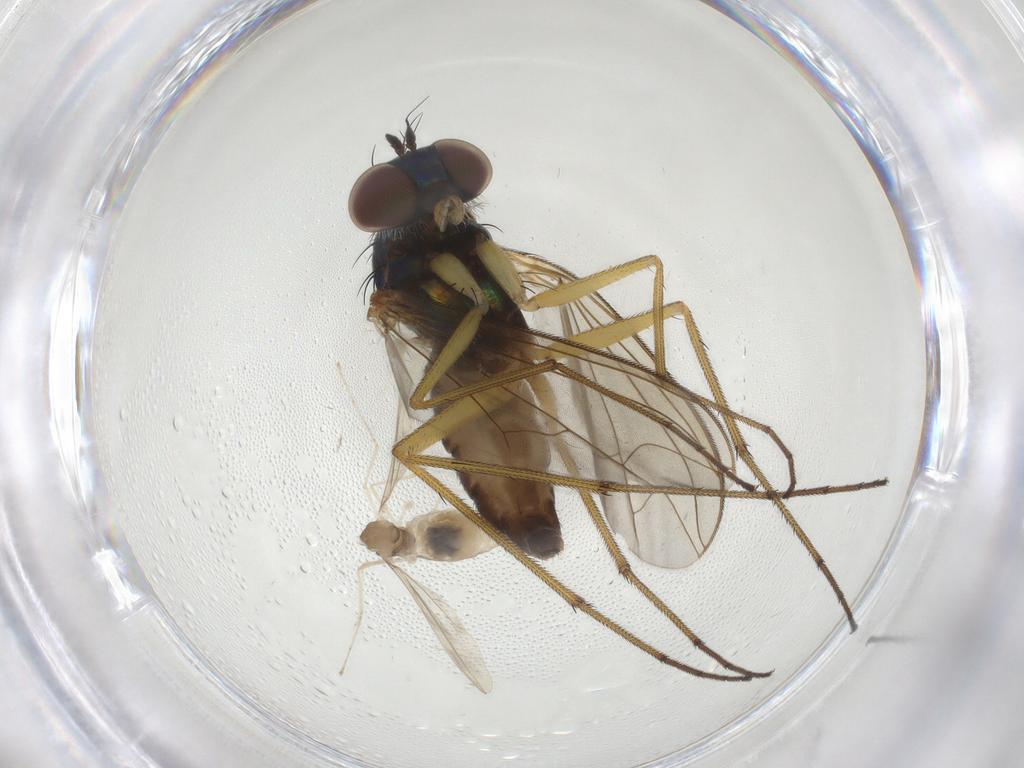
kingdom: Animalia
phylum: Arthropoda
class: Insecta
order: Diptera
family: Dolichopodidae
